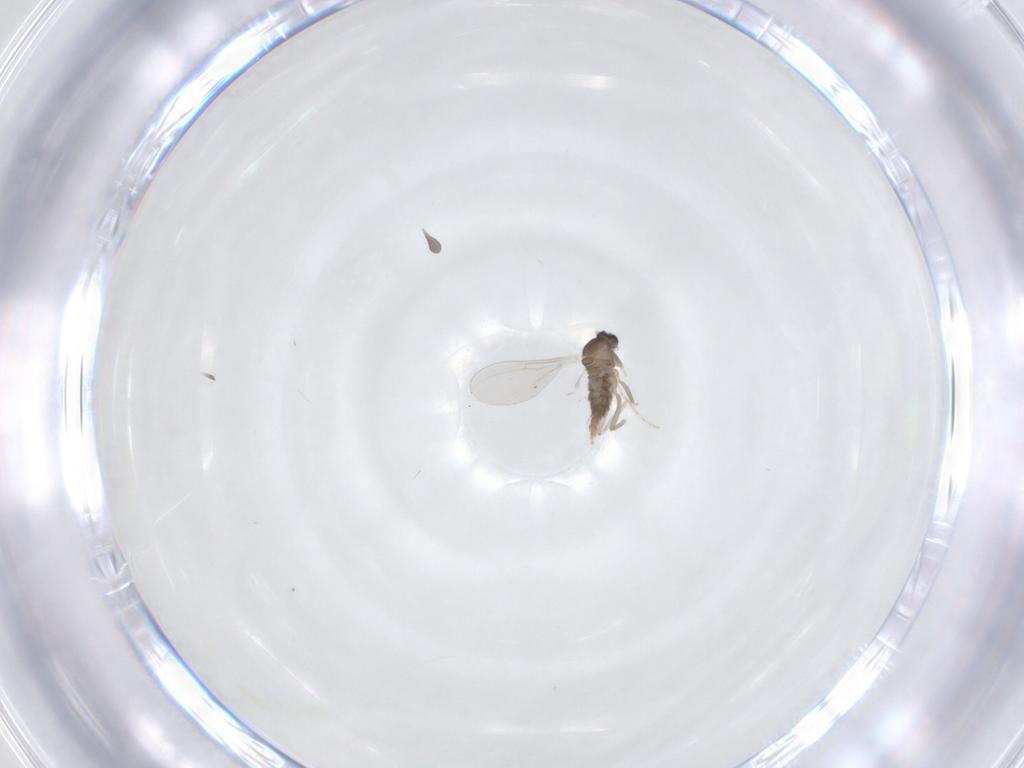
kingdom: Animalia
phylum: Arthropoda
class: Insecta
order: Diptera
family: Cecidomyiidae
